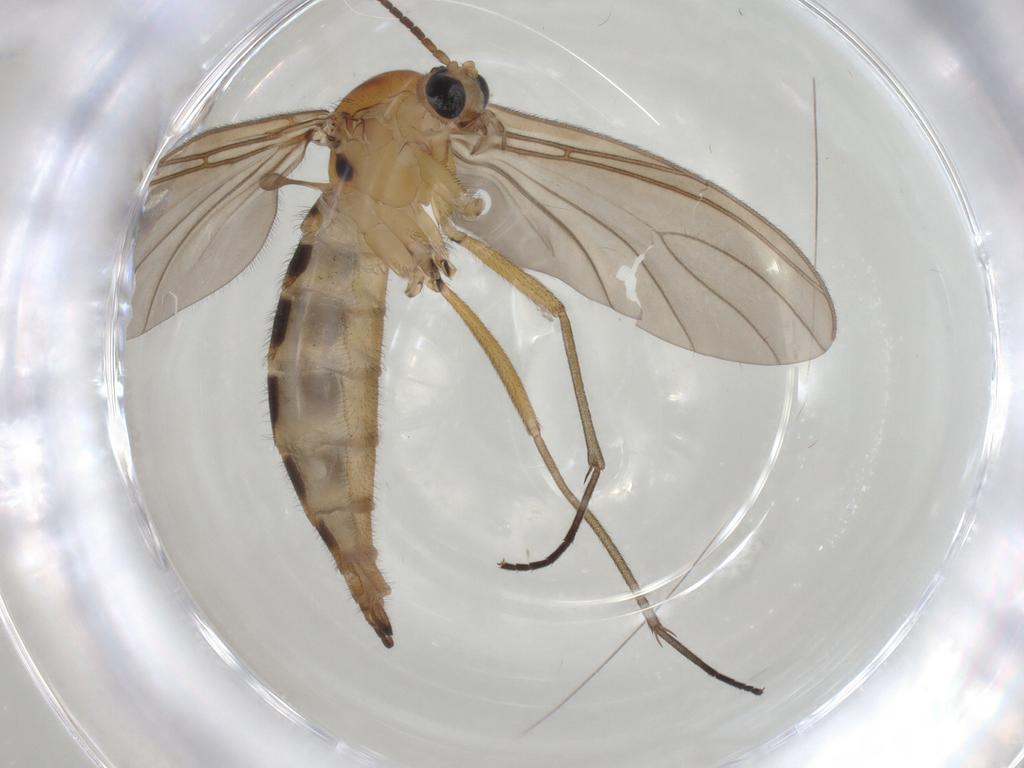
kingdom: Animalia
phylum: Arthropoda
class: Insecta
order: Diptera
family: Sciaridae
